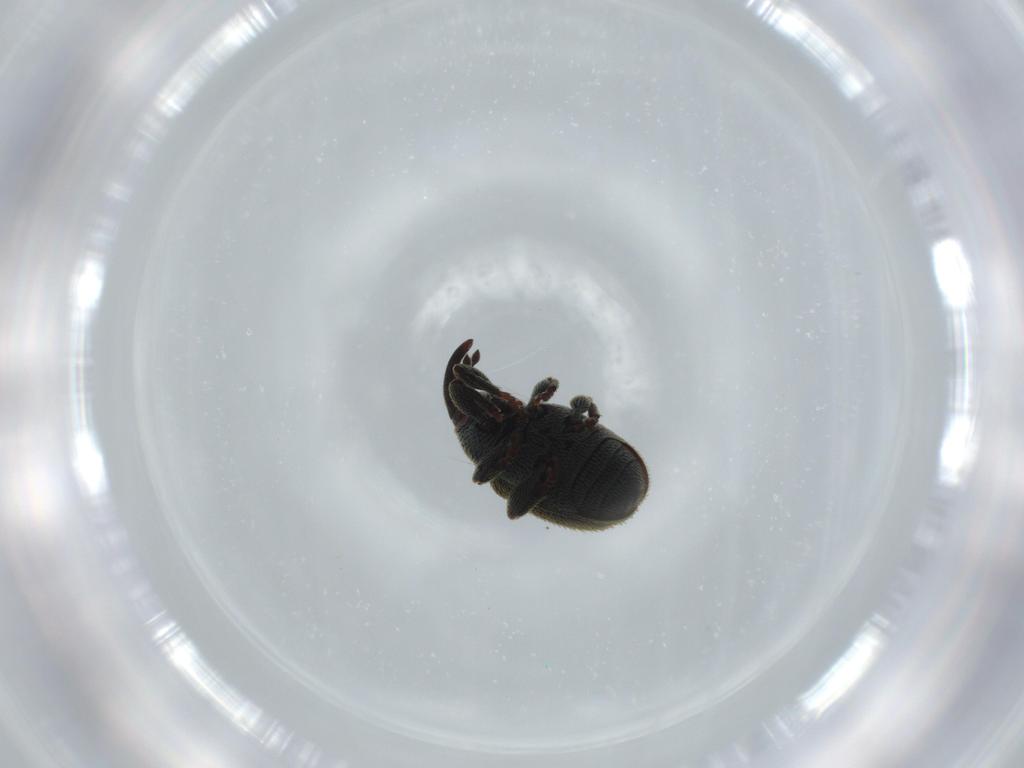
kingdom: Animalia
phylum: Arthropoda
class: Insecta
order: Coleoptera
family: Curculionidae
